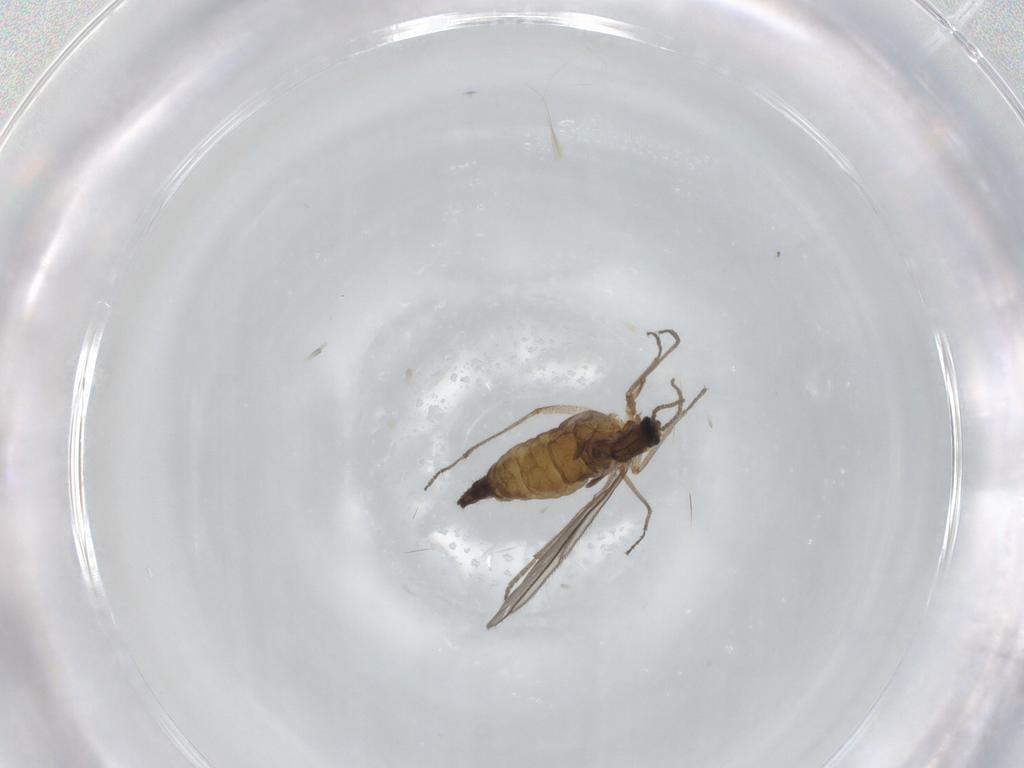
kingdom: Animalia
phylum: Arthropoda
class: Insecta
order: Diptera
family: Sciaridae
